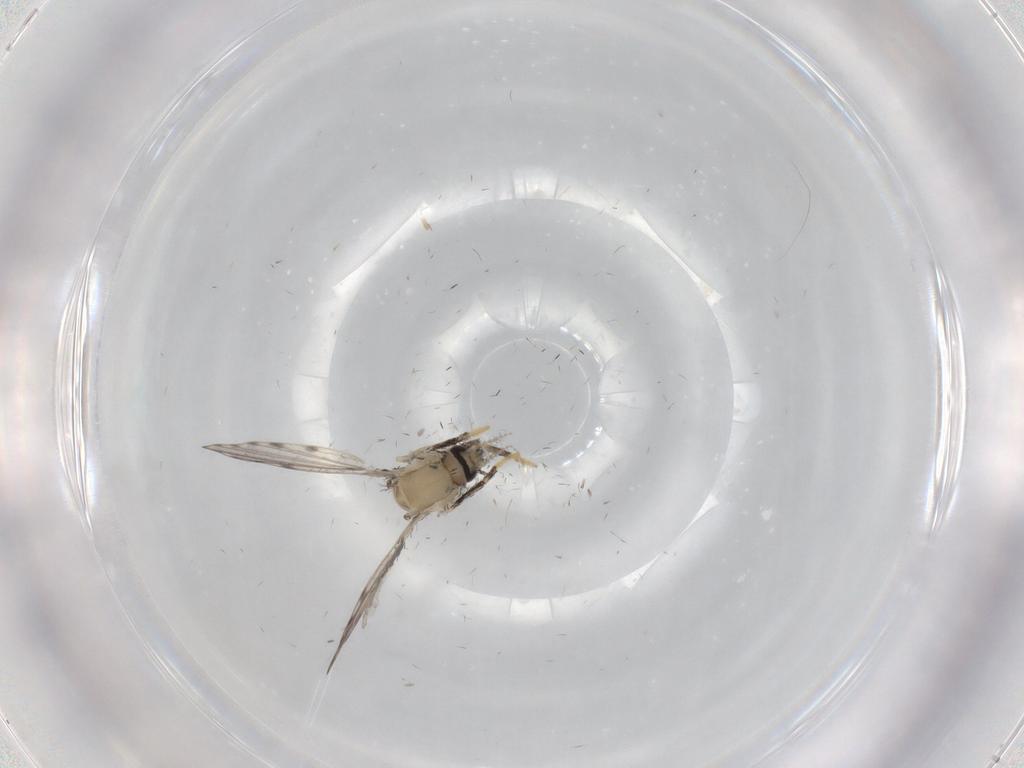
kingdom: Animalia
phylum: Arthropoda
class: Insecta
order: Diptera
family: Psychodidae
